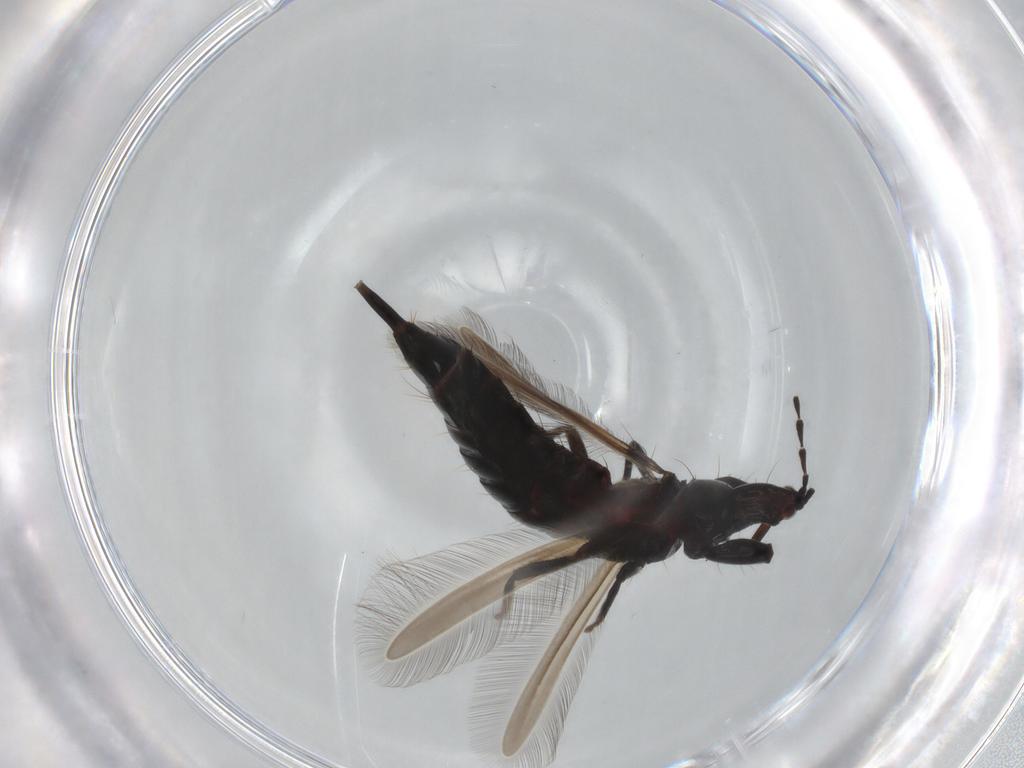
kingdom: Animalia
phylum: Arthropoda
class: Insecta
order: Thysanoptera
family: Phlaeothripidae
